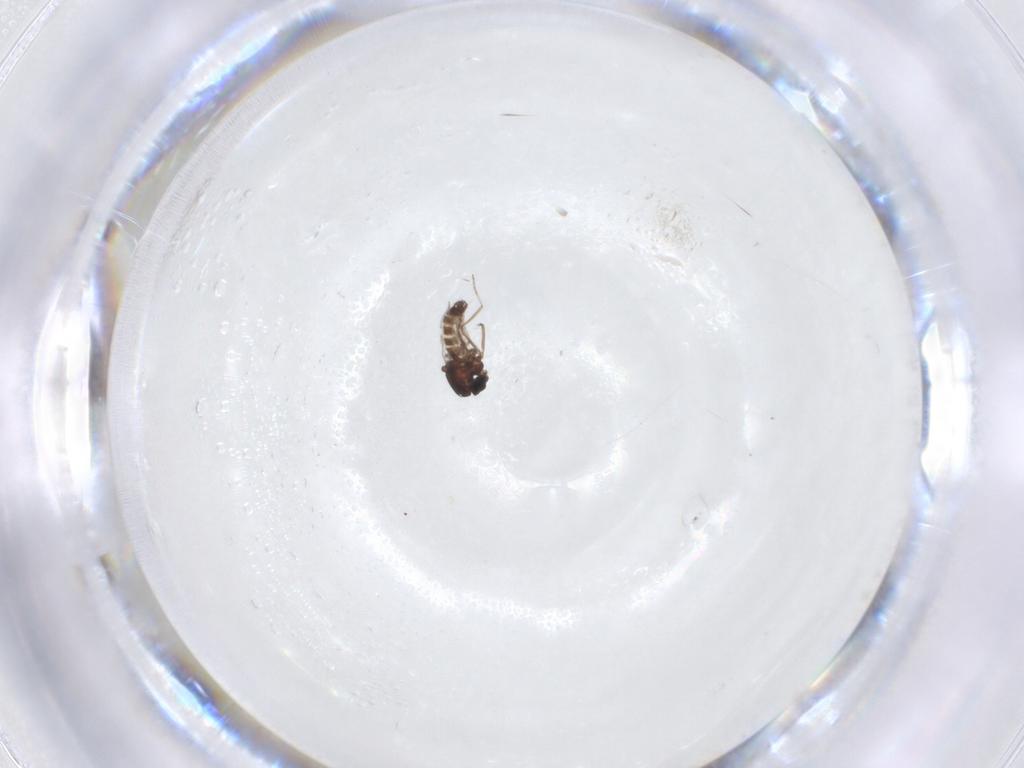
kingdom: Animalia
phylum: Arthropoda
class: Insecta
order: Diptera
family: Ceratopogonidae
